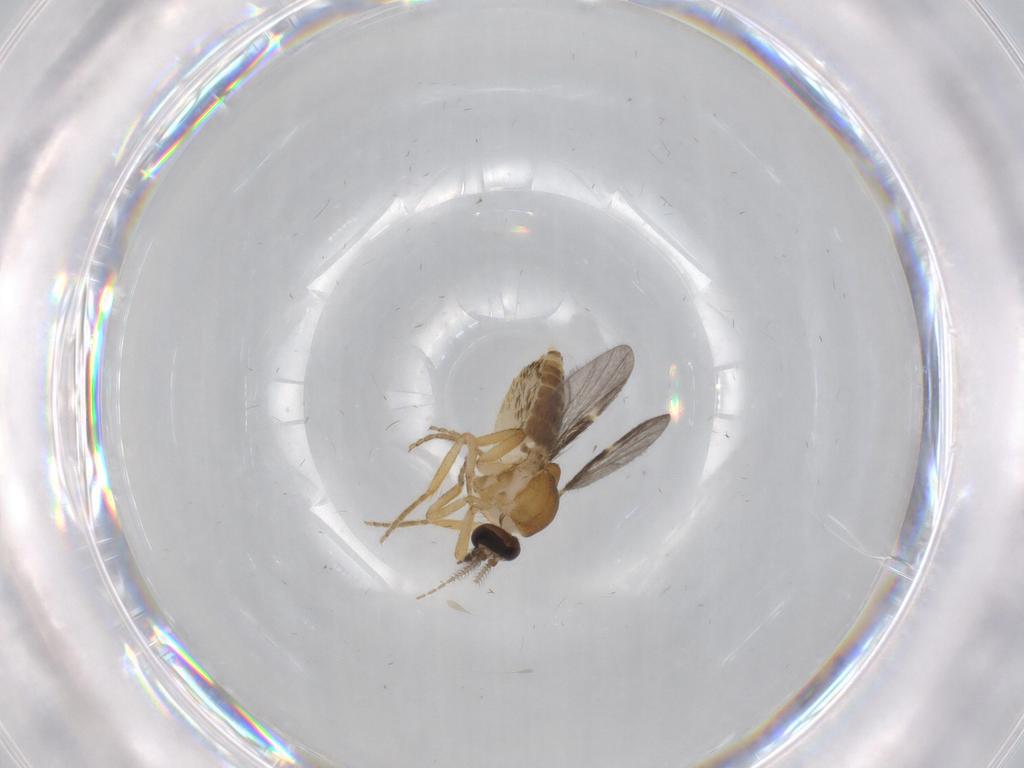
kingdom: Animalia
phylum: Arthropoda
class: Insecta
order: Diptera
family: Ceratopogonidae
